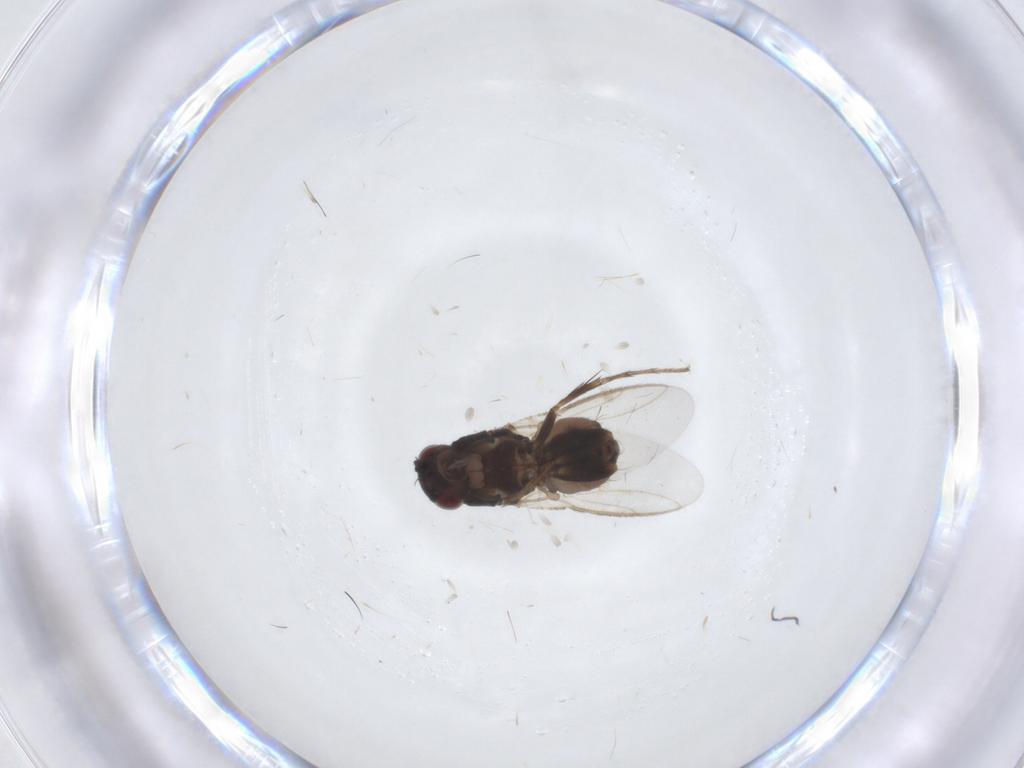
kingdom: Animalia
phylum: Arthropoda
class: Insecta
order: Diptera
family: Sphaeroceridae
